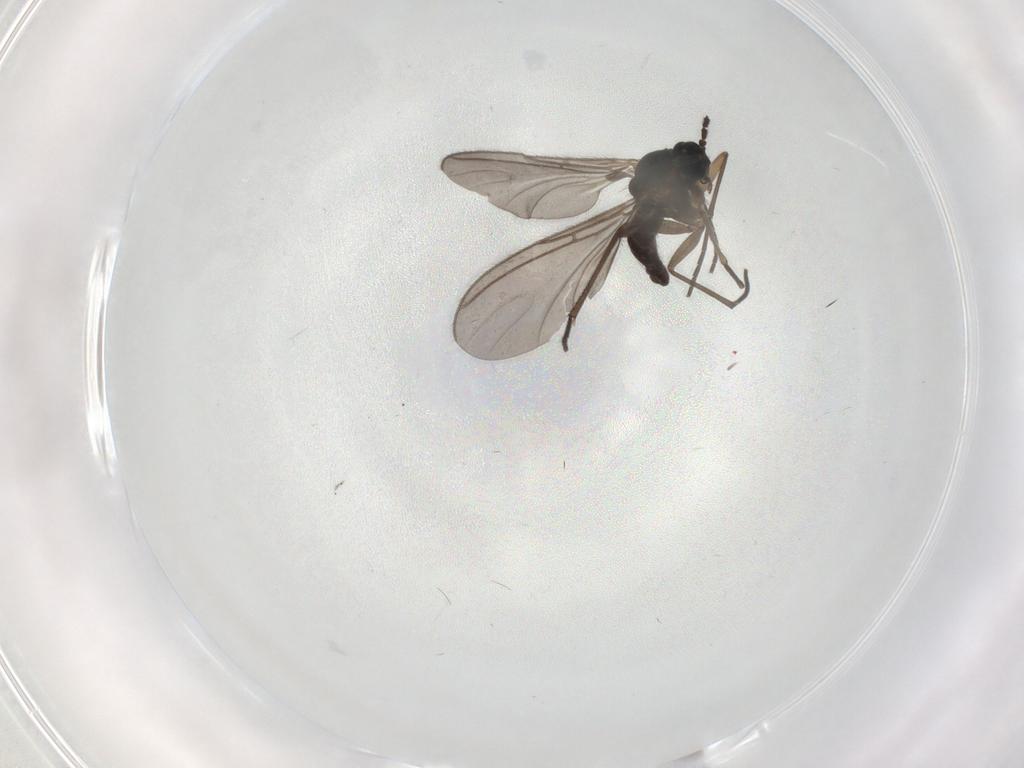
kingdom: Animalia
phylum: Arthropoda
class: Insecta
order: Diptera
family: Sciaridae
